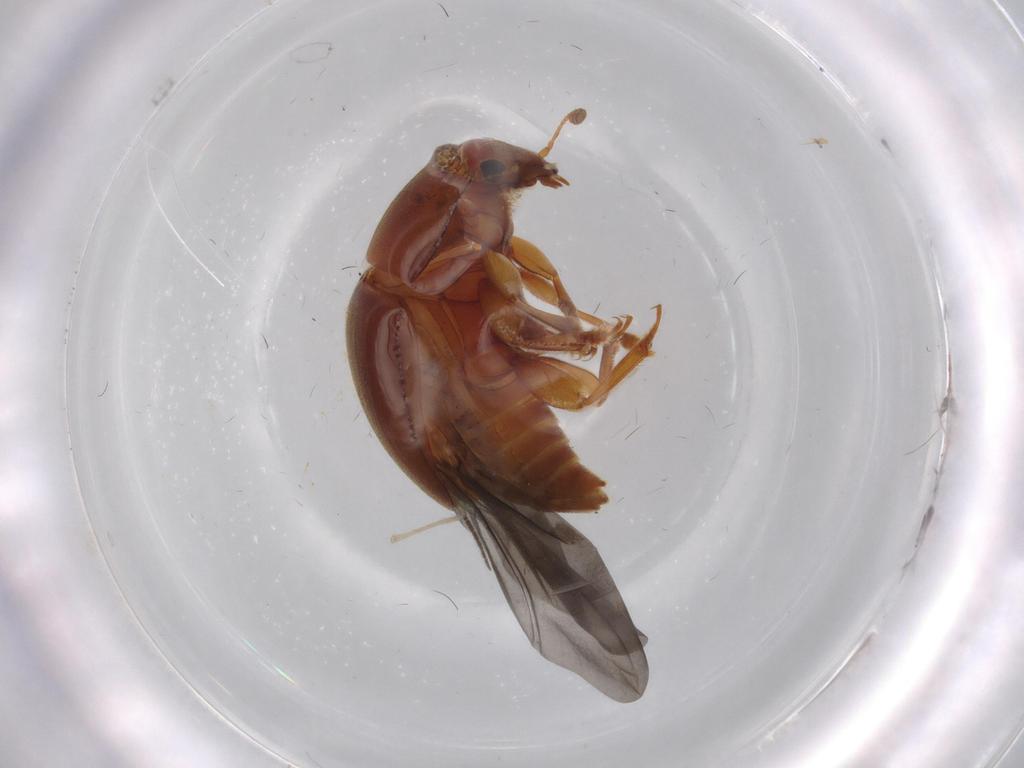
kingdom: Animalia
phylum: Arthropoda
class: Insecta
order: Coleoptera
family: Nitidulidae
